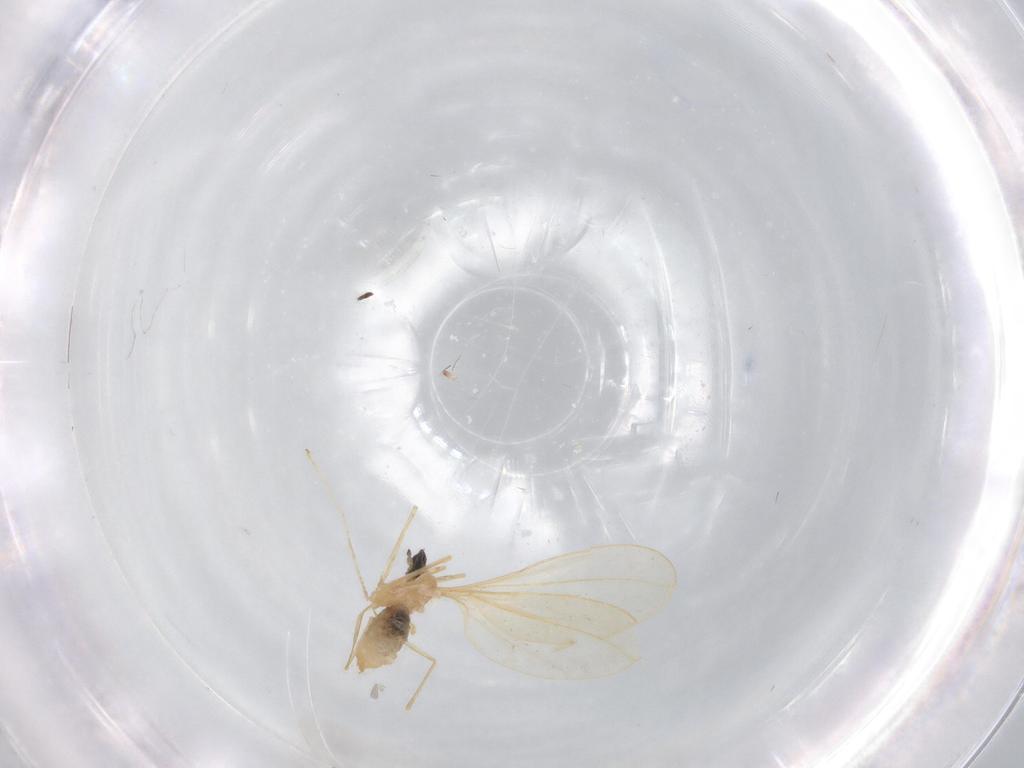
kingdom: Animalia
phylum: Arthropoda
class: Insecta
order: Diptera
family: Cecidomyiidae
